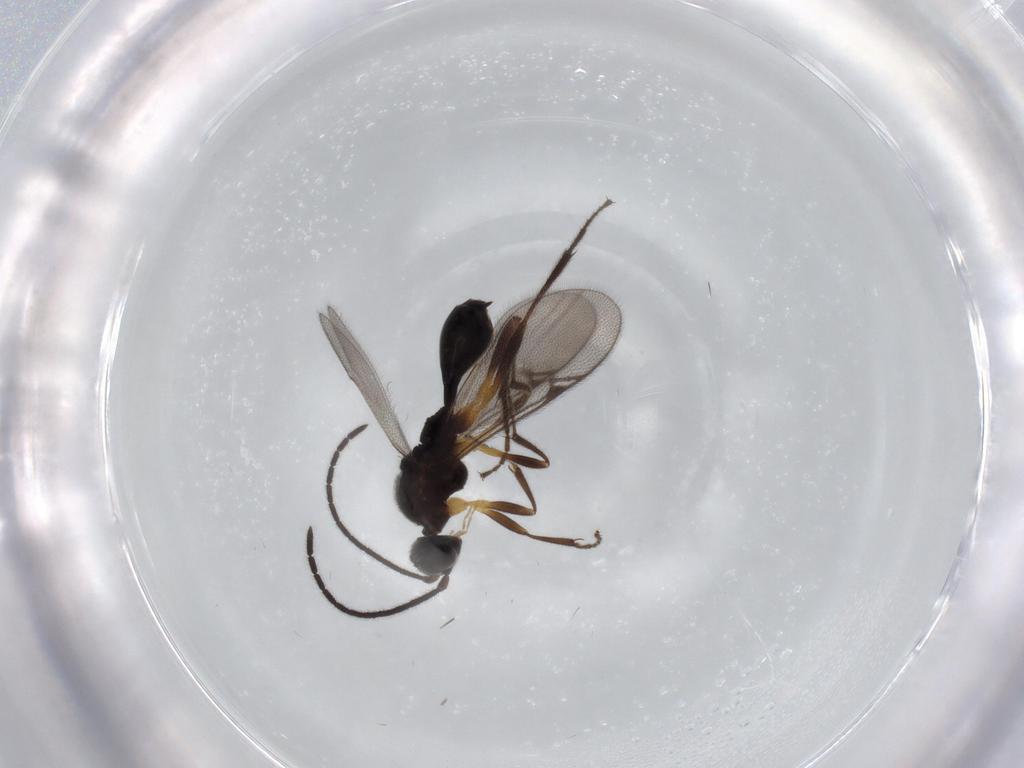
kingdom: Animalia
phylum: Arthropoda
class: Insecta
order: Hymenoptera
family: Proctotrupidae
